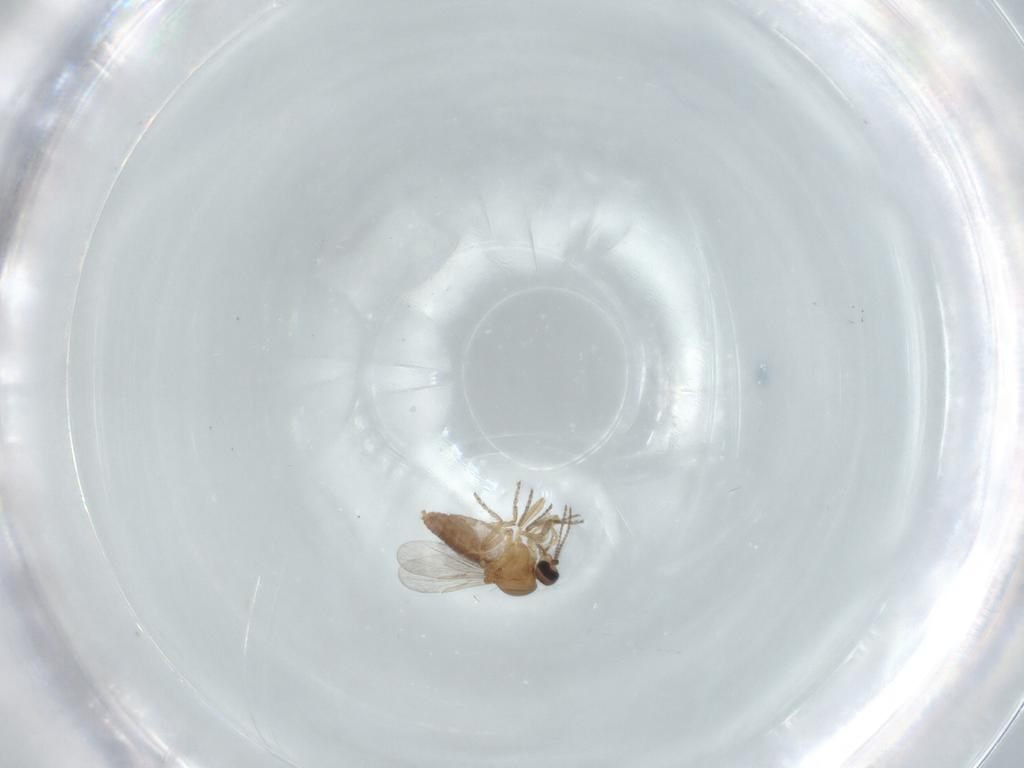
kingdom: Animalia
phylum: Arthropoda
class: Insecta
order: Diptera
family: Ceratopogonidae
